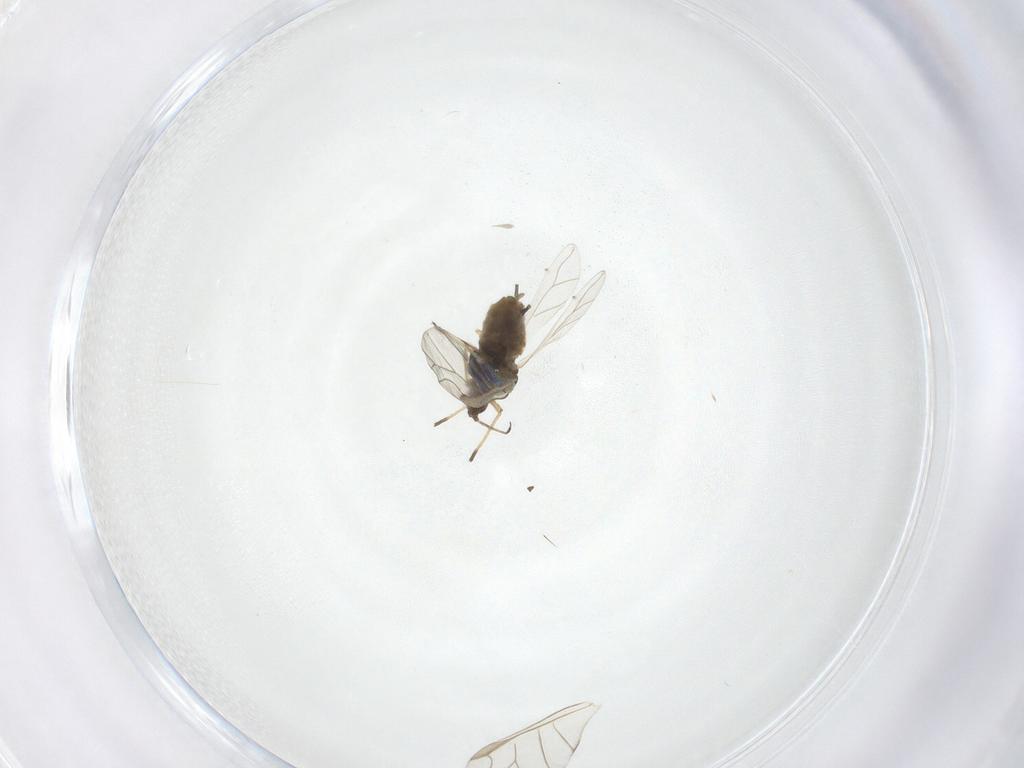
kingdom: Animalia
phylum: Arthropoda
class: Insecta
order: Hemiptera
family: Aphididae
